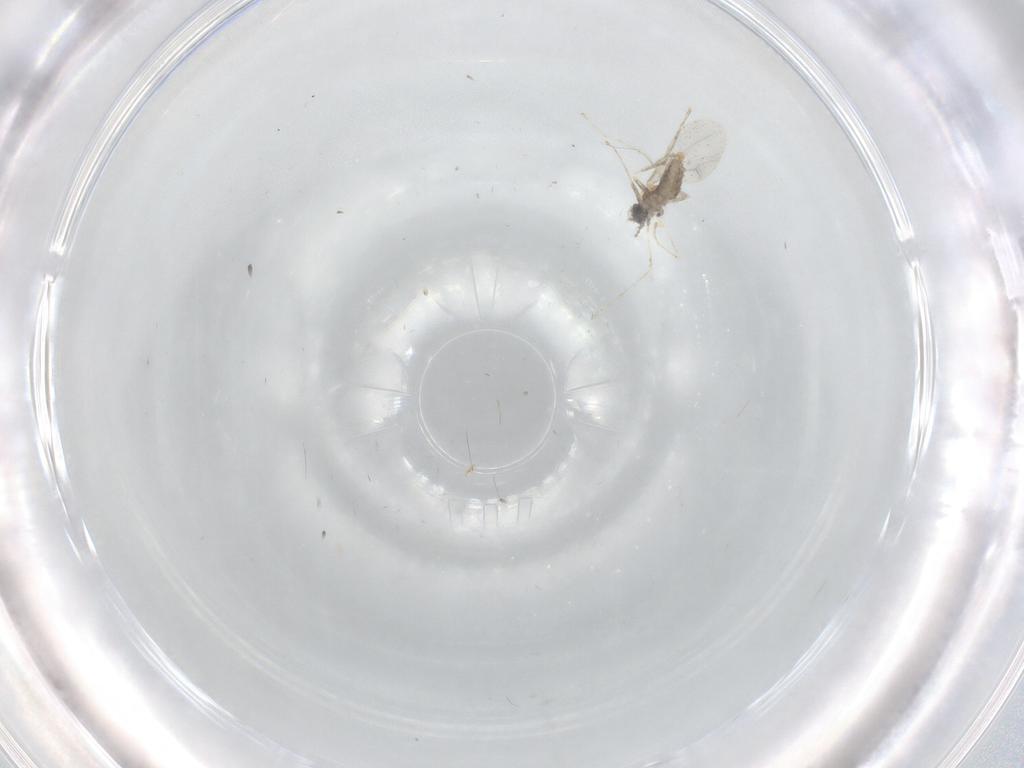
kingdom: Animalia
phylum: Arthropoda
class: Insecta
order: Diptera
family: Cecidomyiidae
